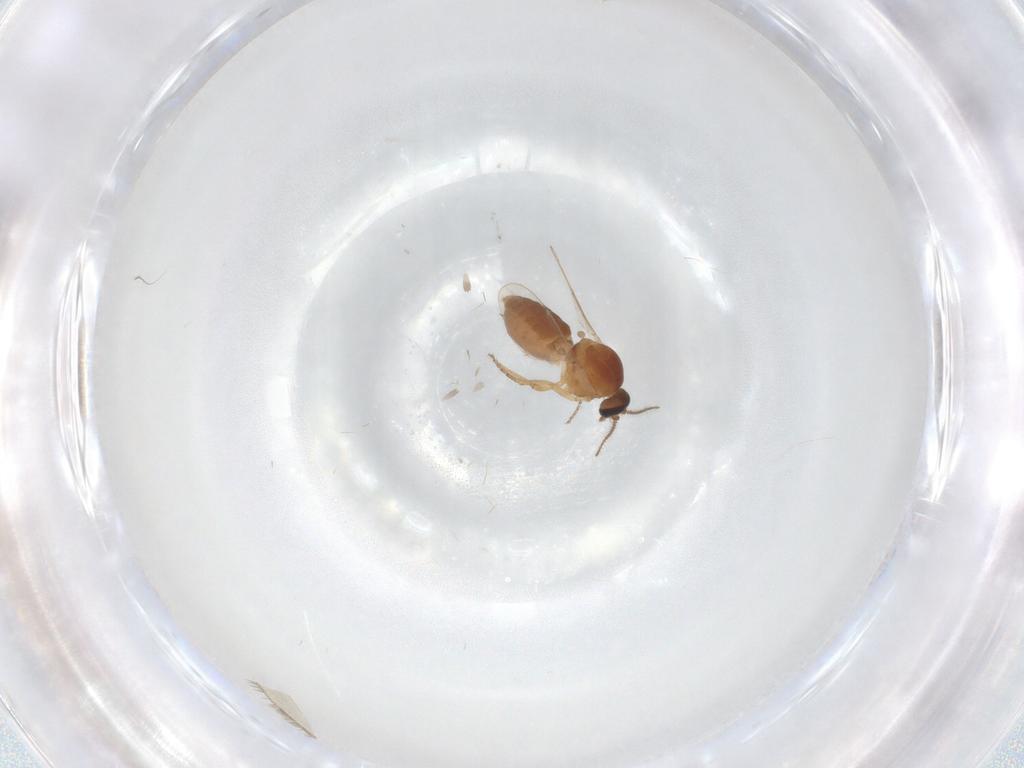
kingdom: Animalia
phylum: Arthropoda
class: Insecta
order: Diptera
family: Ceratopogonidae
